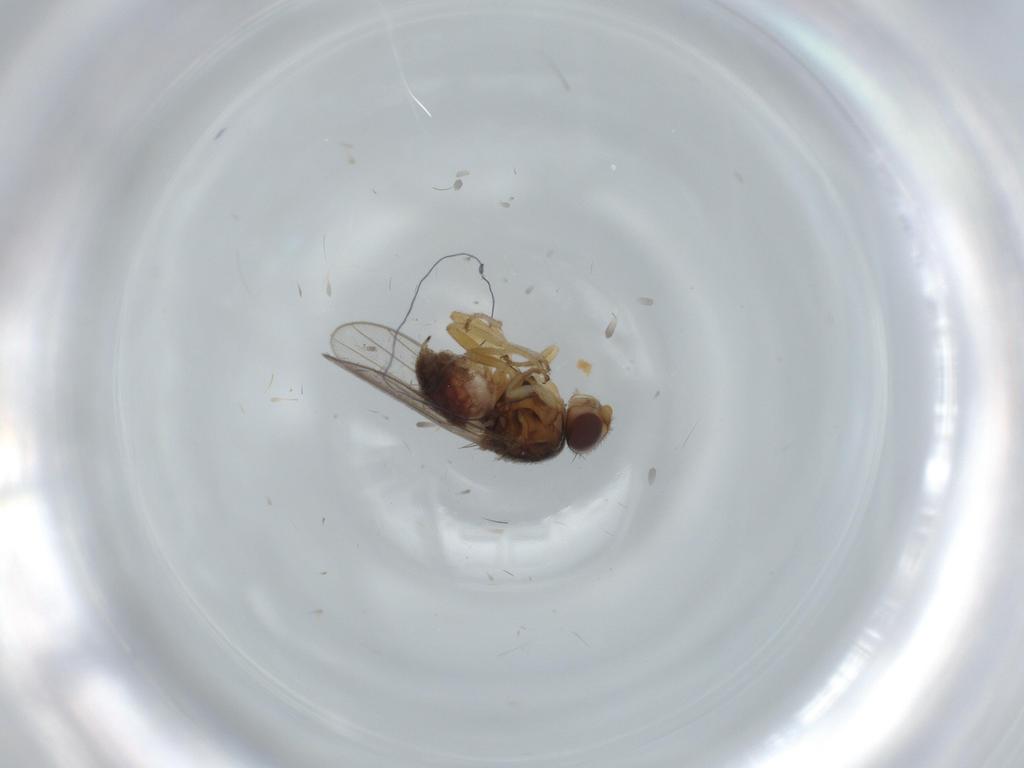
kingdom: Animalia
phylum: Arthropoda
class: Insecta
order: Diptera
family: Chloropidae
